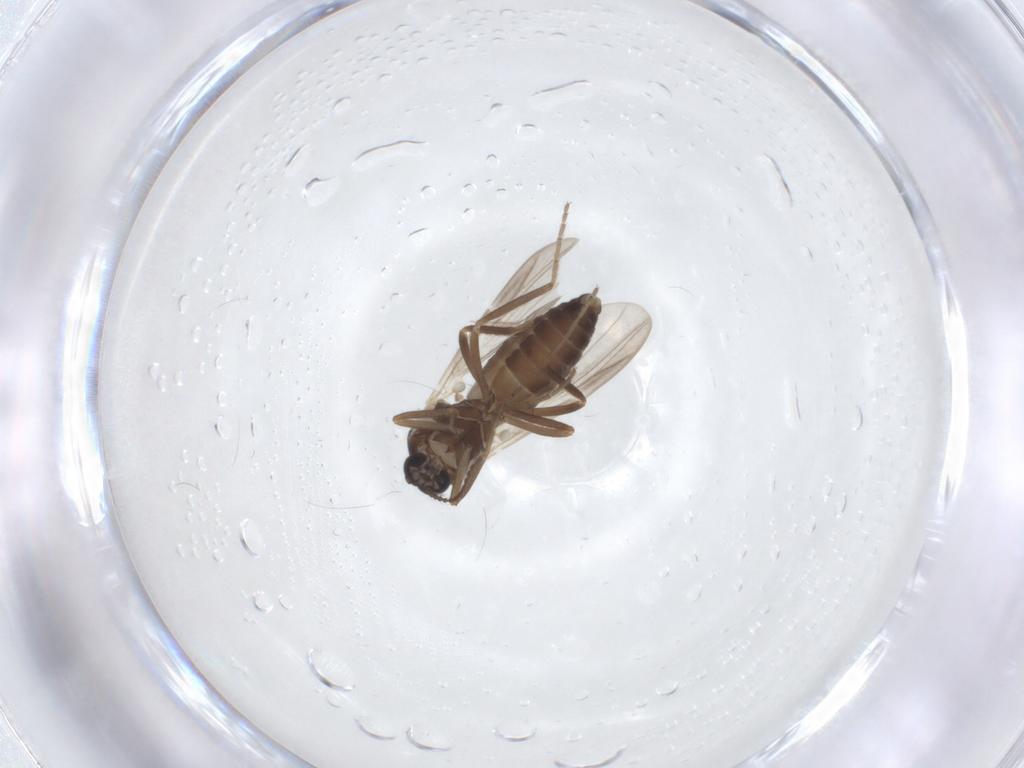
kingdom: Animalia
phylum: Arthropoda
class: Insecta
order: Diptera
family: Ceratopogonidae
